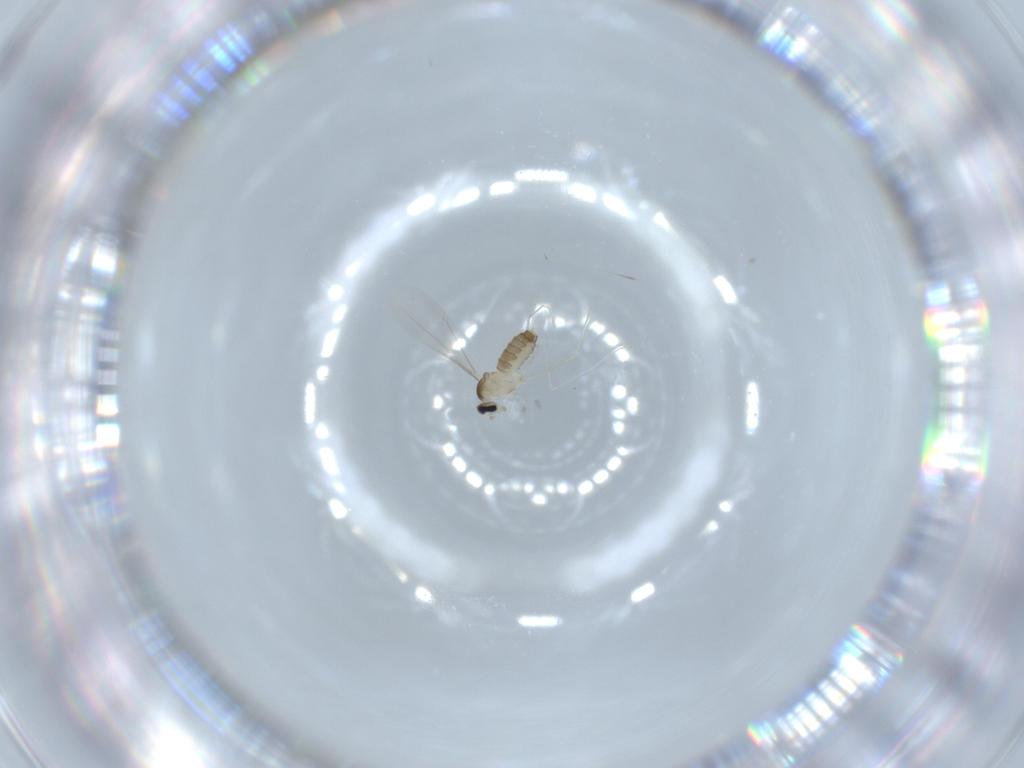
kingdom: Animalia
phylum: Arthropoda
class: Insecta
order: Diptera
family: Cecidomyiidae
